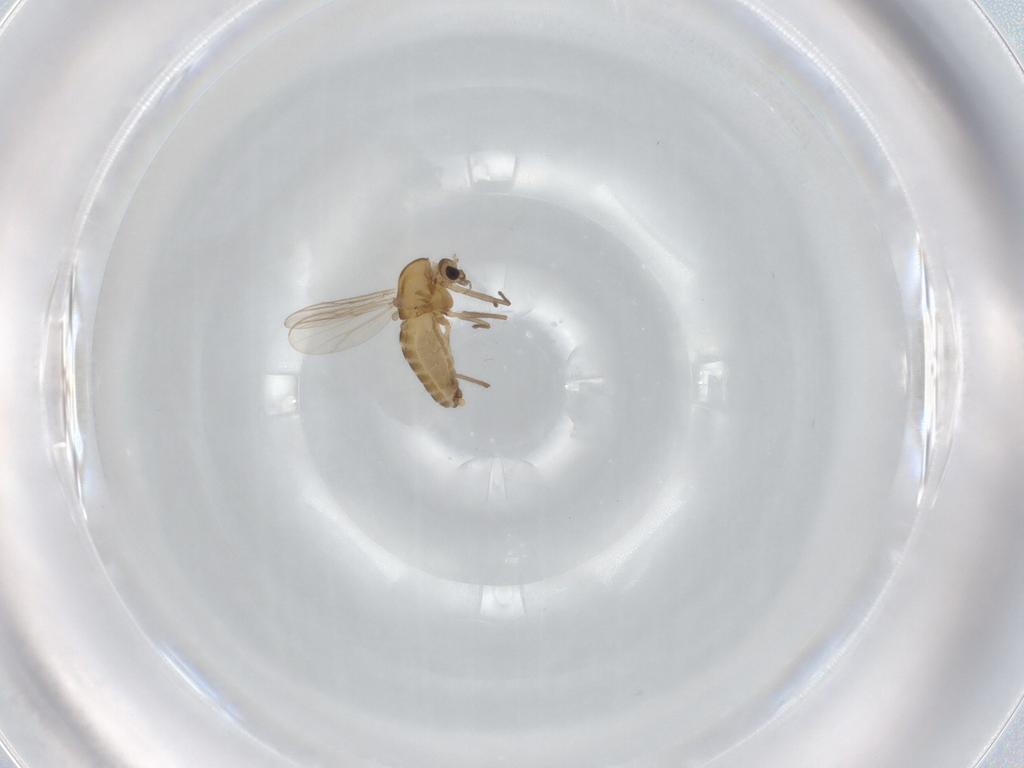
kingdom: Animalia
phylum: Arthropoda
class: Insecta
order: Diptera
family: Chironomidae
